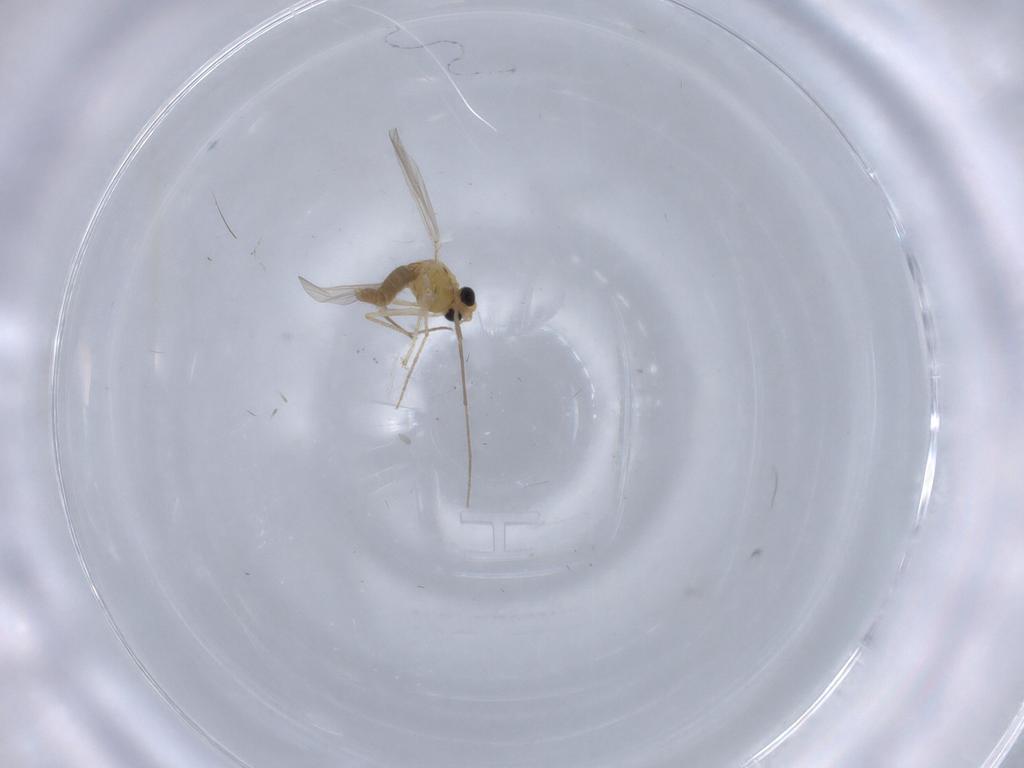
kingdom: Animalia
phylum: Arthropoda
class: Insecta
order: Diptera
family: Chironomidae
